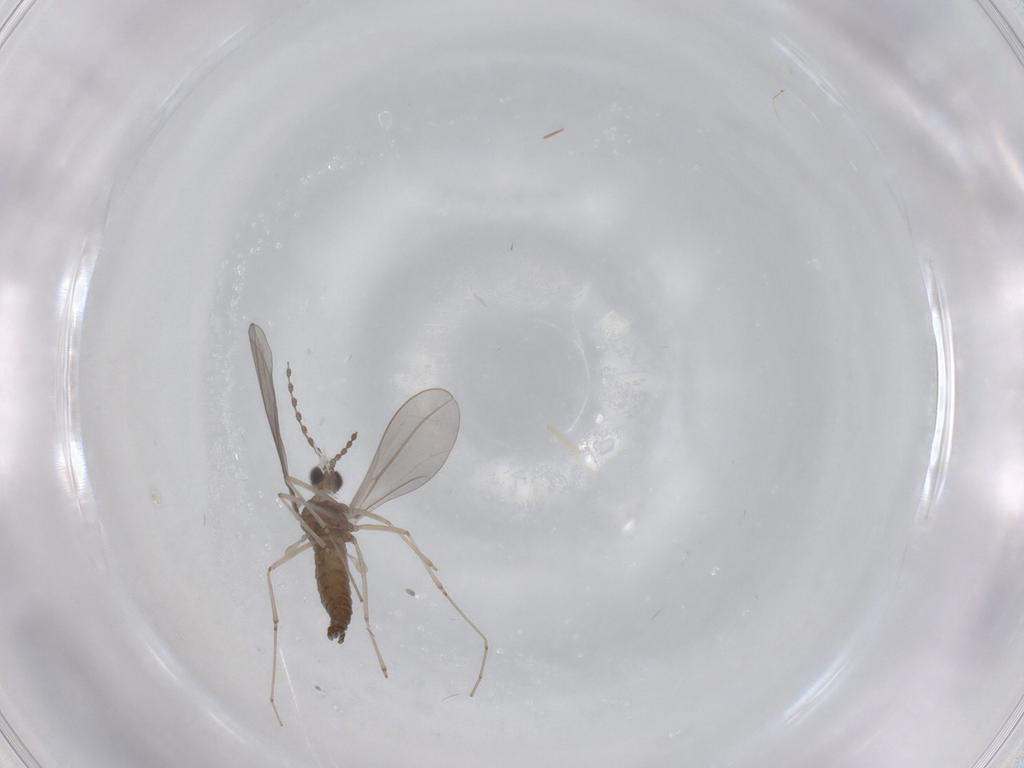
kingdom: Animalia
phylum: Arthropoda
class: Insecta
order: Diptera
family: Cecidomyiidae
